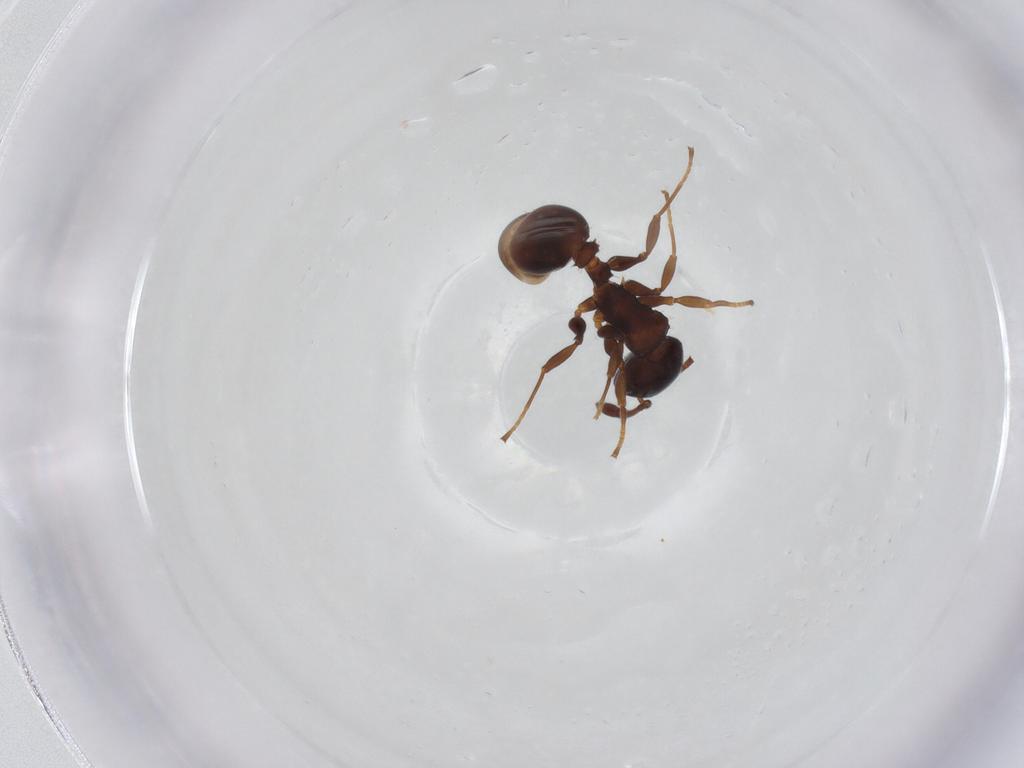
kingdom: Animalia
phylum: Arthropoda
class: Insecta
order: Hymenoptera
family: Formicidae
